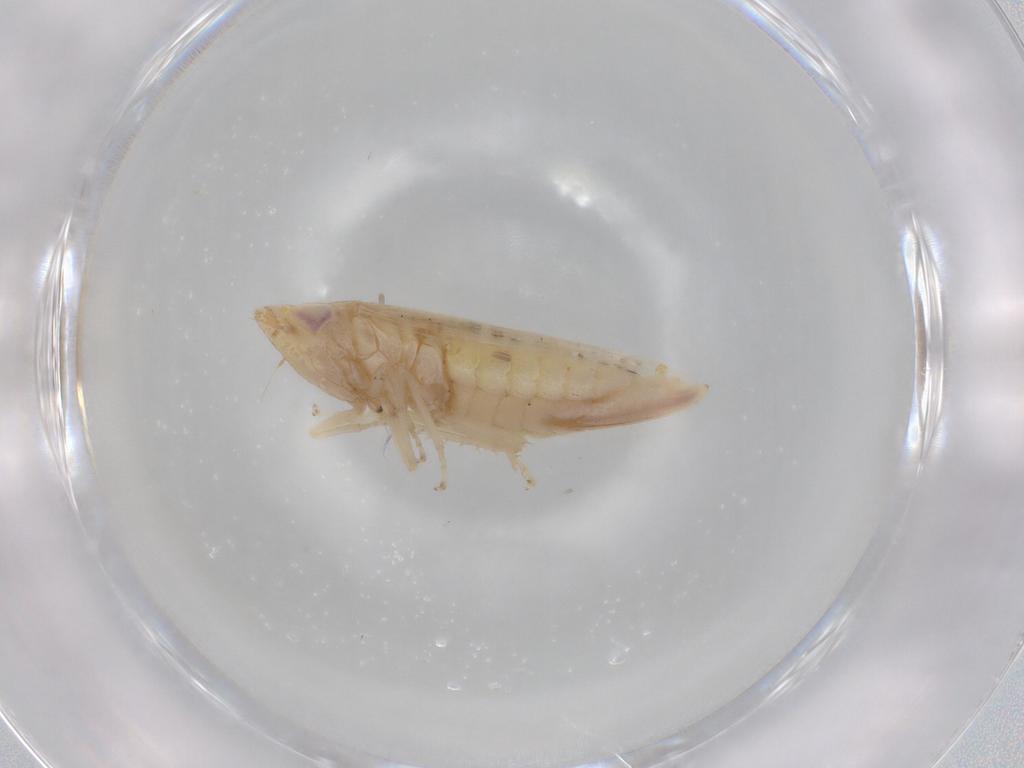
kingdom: Animalia
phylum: Arthropoda
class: Insecta
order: Hemiptera
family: Cicadellidae
